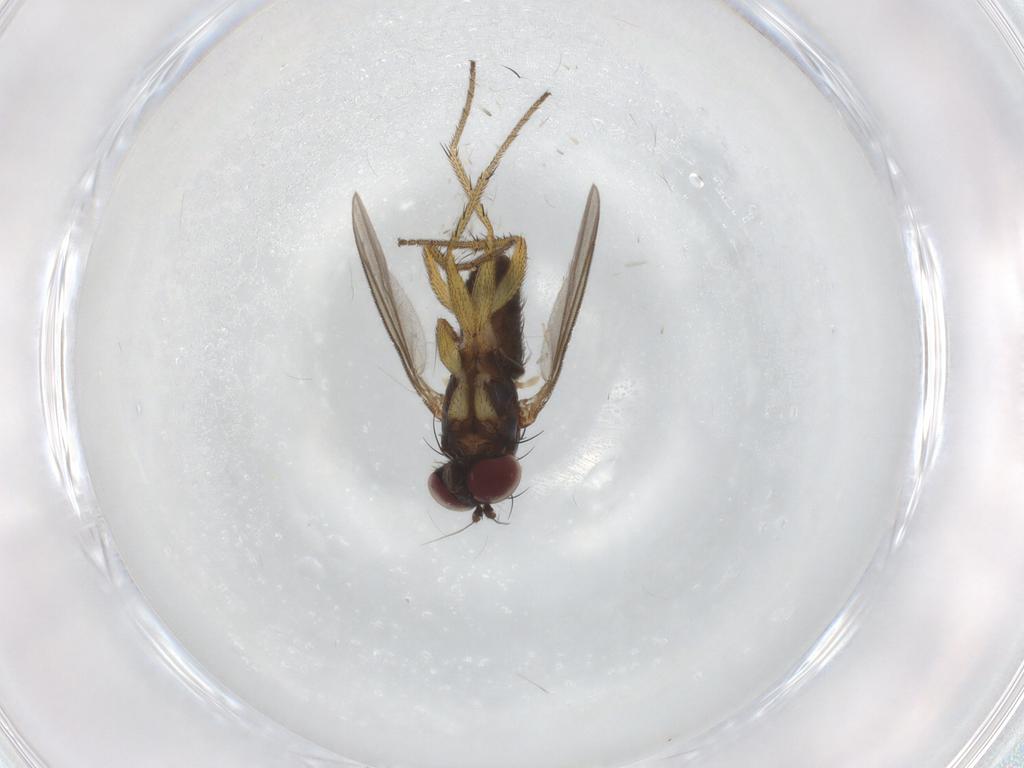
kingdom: Animalia
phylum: Arthropoda
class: Insecta
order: Diptera
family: Dolichopodidae
